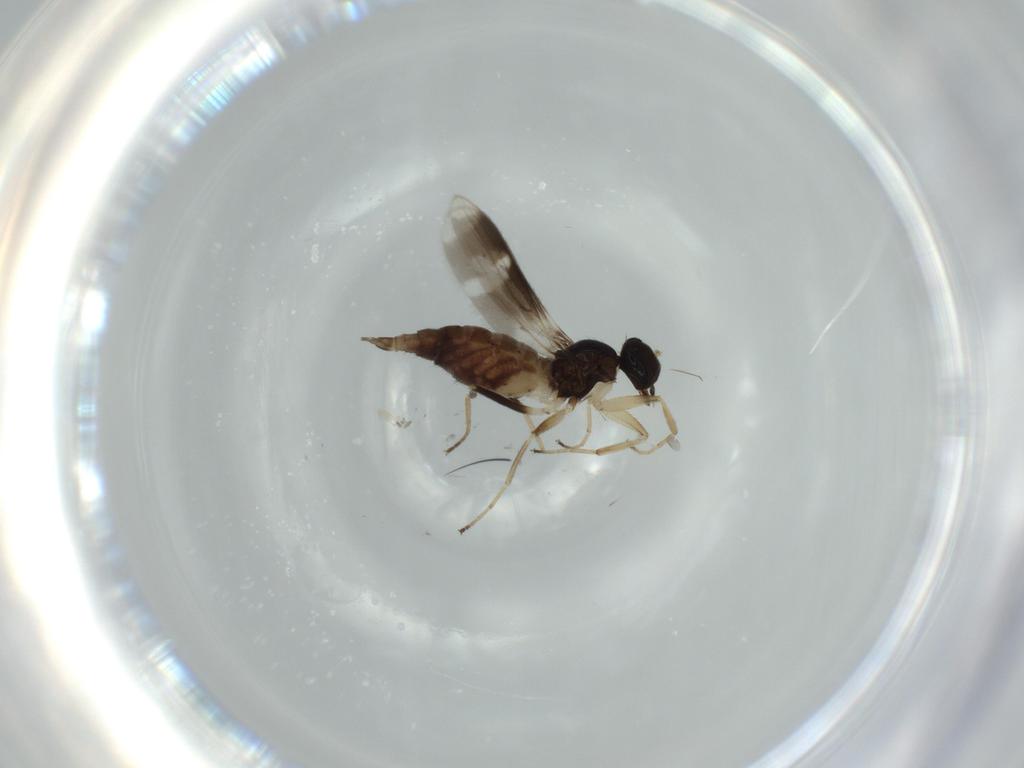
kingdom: Animalia
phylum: Arthropoda
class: Insecta
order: Diptera
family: Hybotidae
